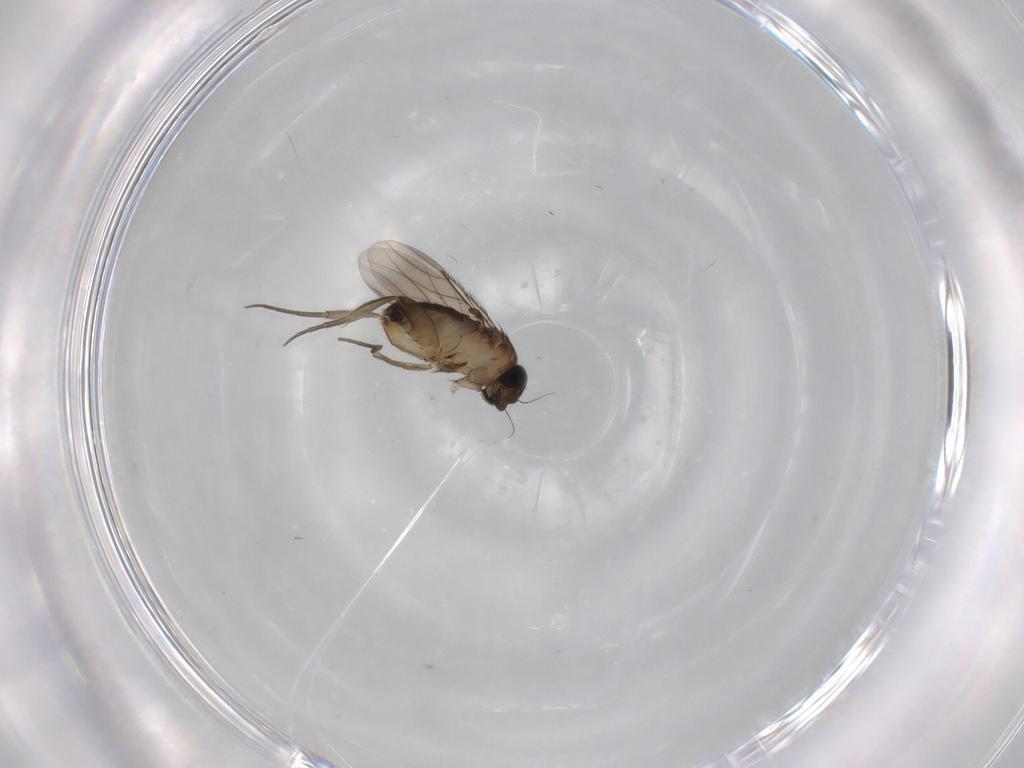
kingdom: Animalia
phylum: Arthropoda
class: Insecta
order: Diptera
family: Phoridae
